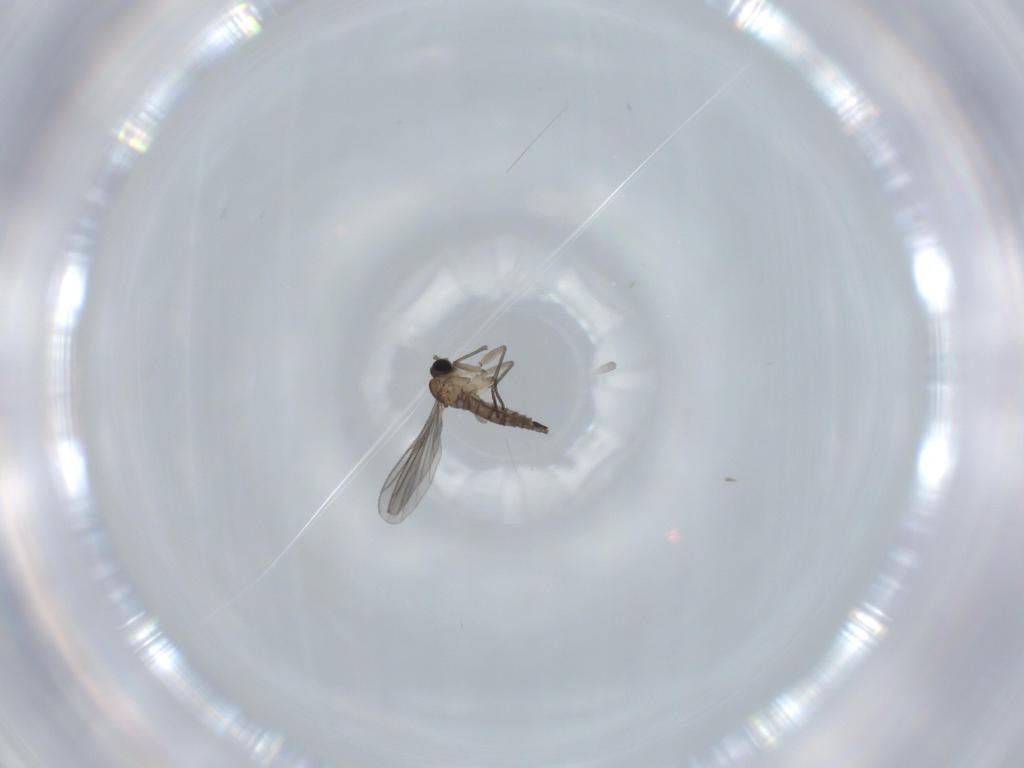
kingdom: Animalia
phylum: Arthropoda
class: Insecta
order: Diptera
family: Sciaridae
